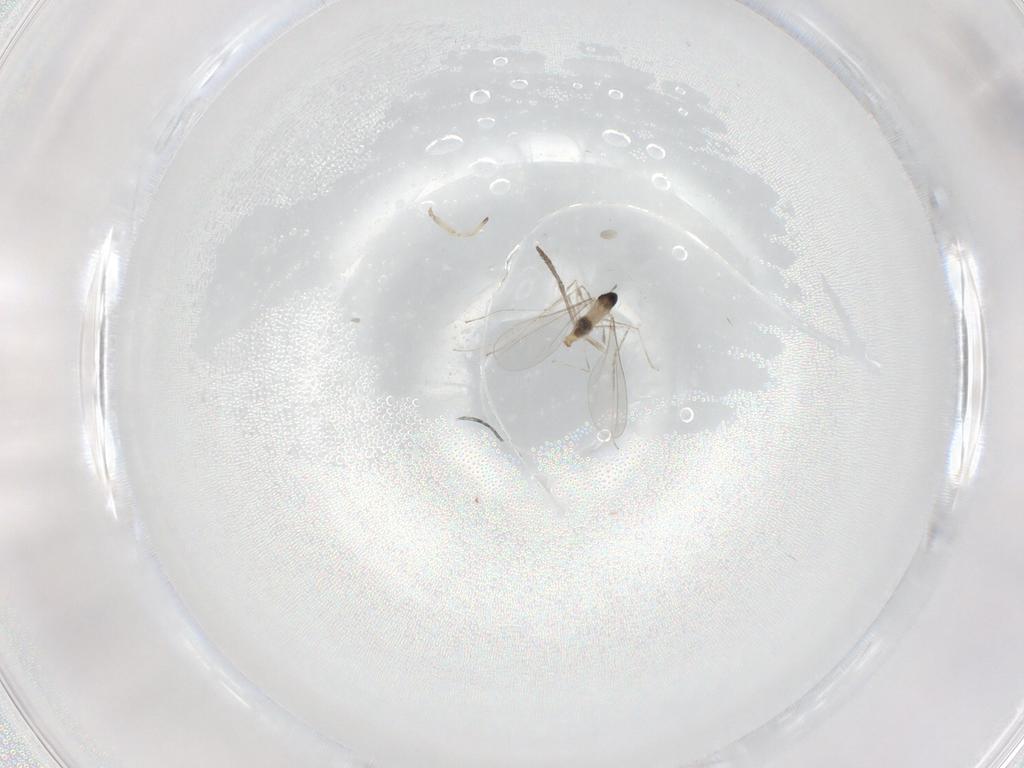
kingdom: Animalia
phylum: Arthropoda
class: Insecta
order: Diptera
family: Cecidomyiidae
